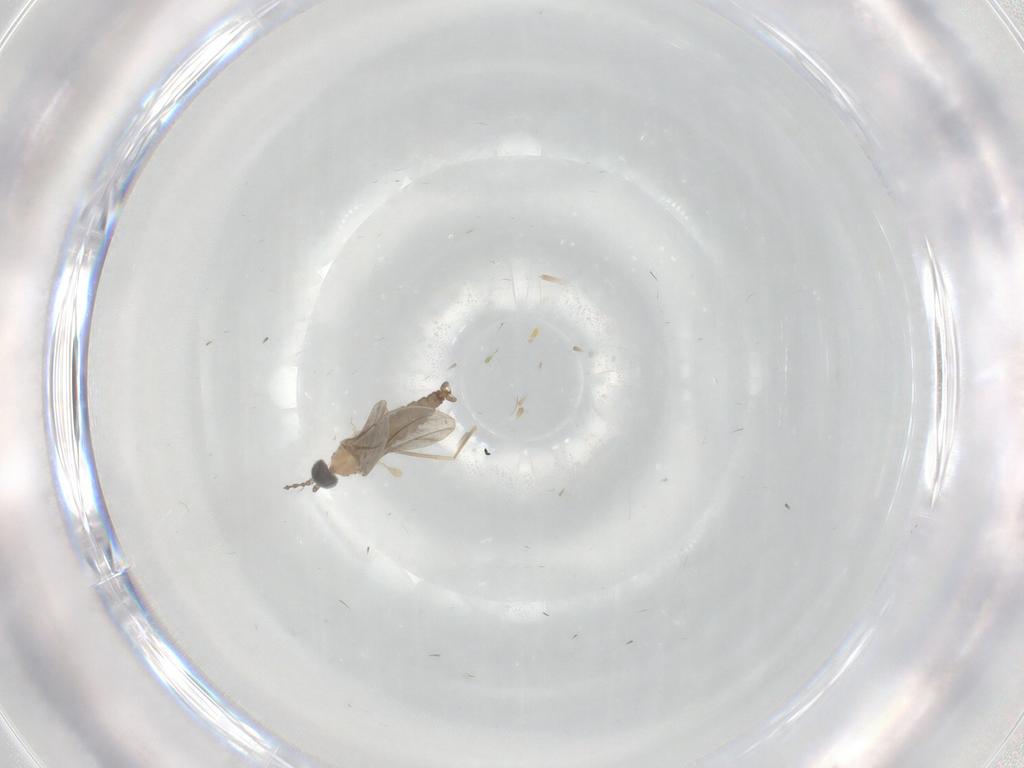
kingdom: Animalia
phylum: Arthropoda
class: Insecta
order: Diptera
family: Cecidomyiidae
